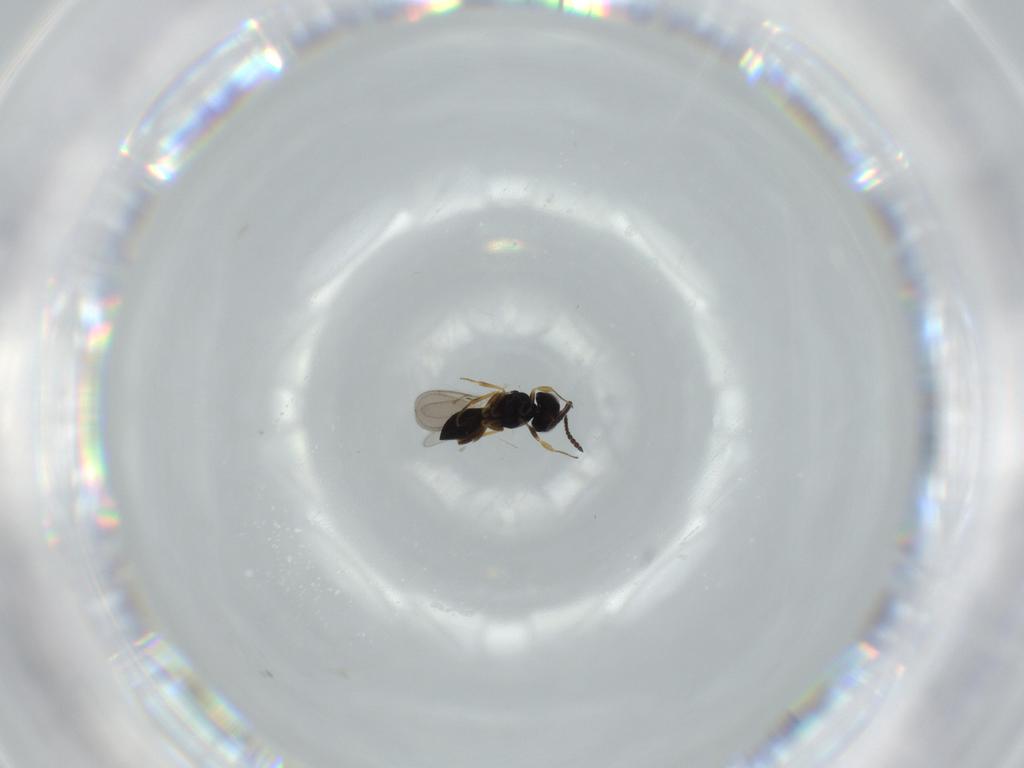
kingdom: Animalia
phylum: Arthropoda
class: Insecta
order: Hymenoptera
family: Scelionidae
